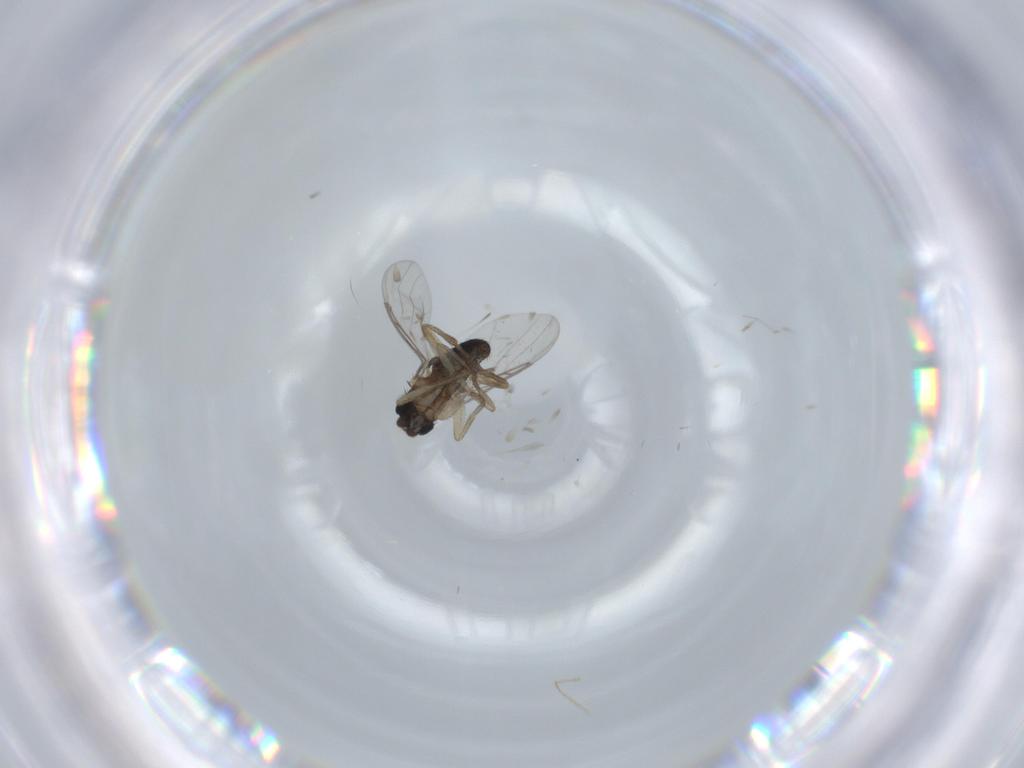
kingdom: Animalia
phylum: Arthropoda
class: Insecta
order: Diptera
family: Phoridae
